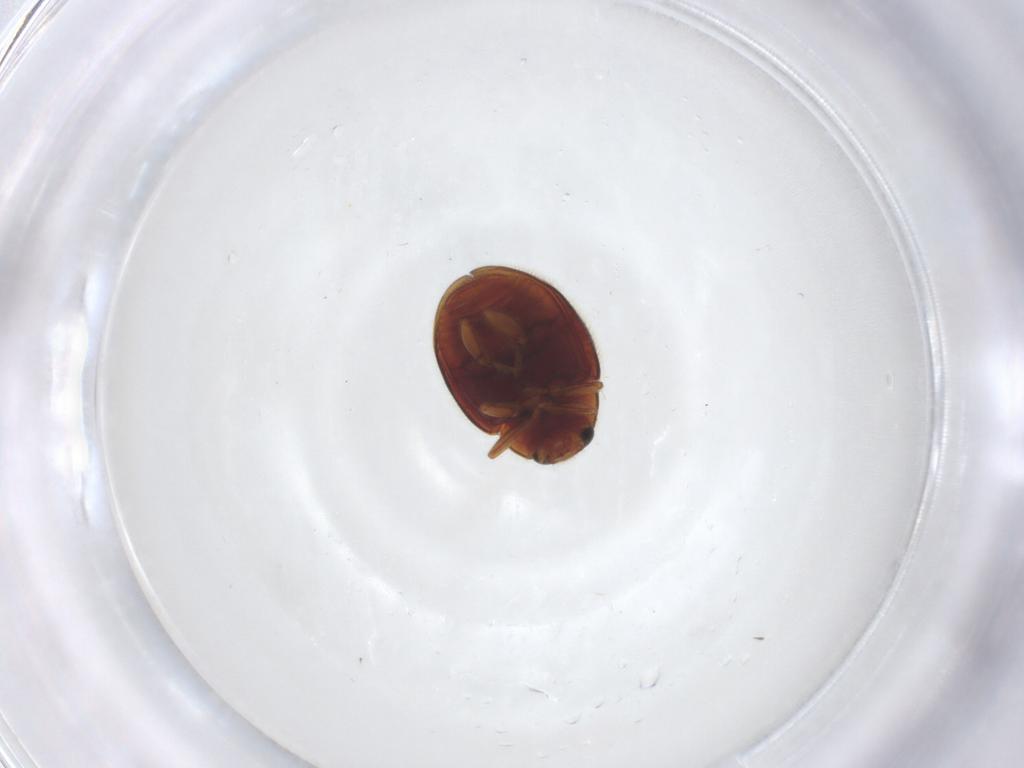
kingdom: Animalia
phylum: Arthropoda
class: Insecta
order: Coleoptera
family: Coccinellidae
